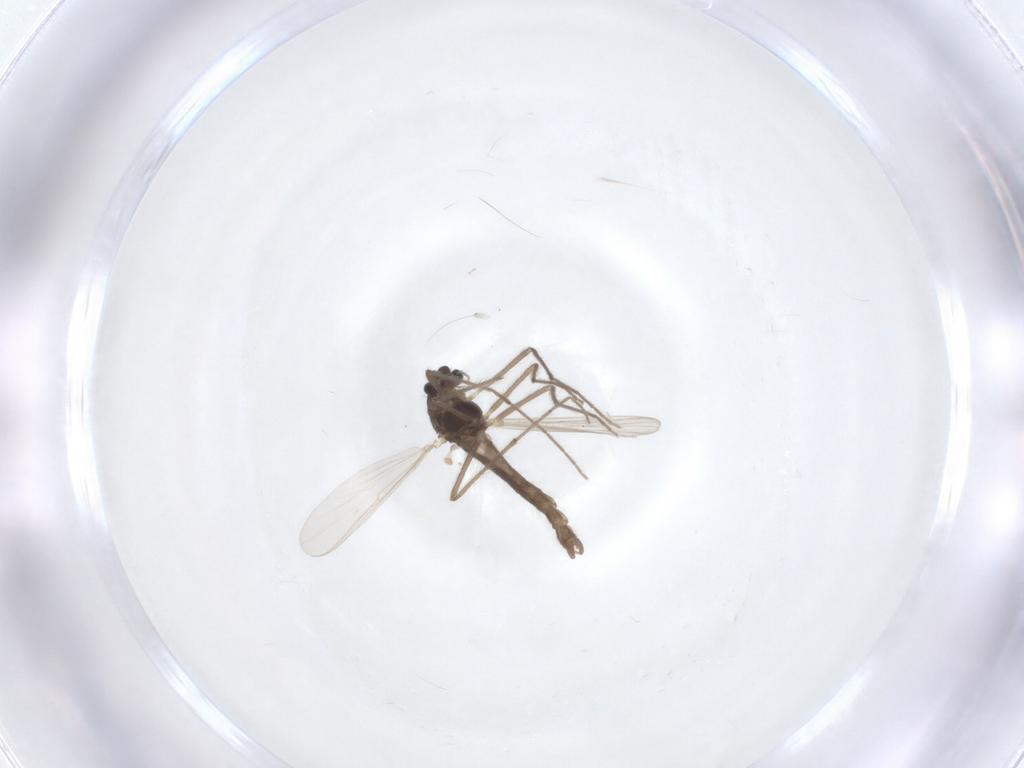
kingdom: Animalia
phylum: Arthropoda
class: Insecta
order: Diptera
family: Chironomidae
